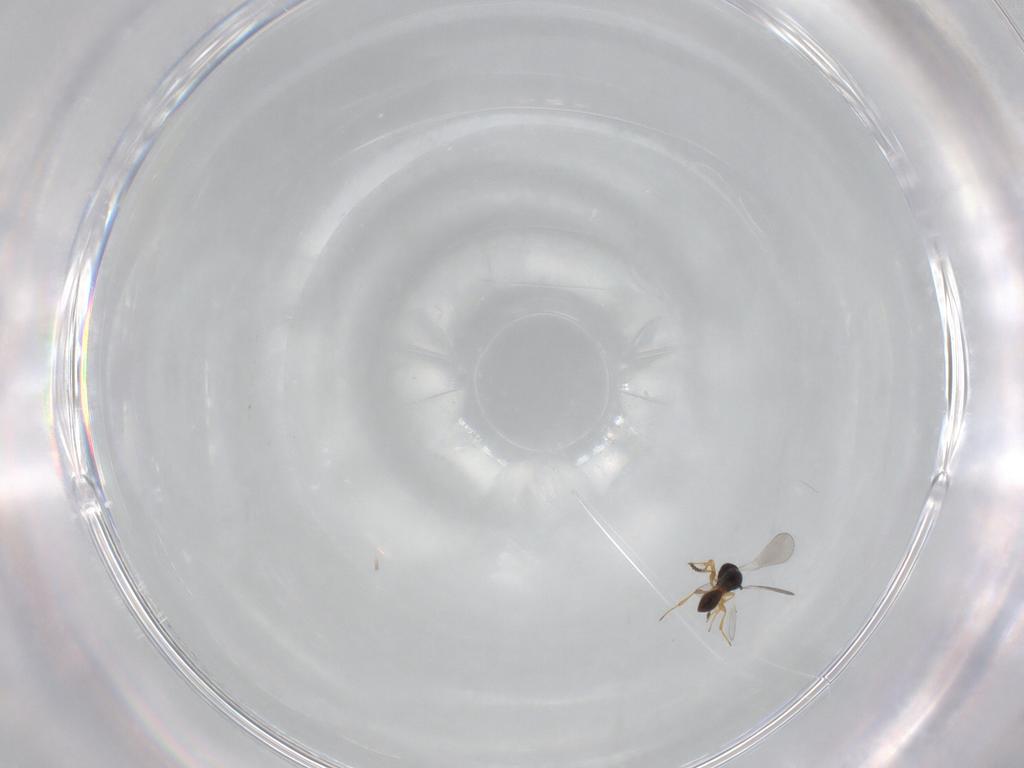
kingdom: Animalia
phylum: Arthropoda
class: Insecta
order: Hymenoptera
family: Platygastridae
